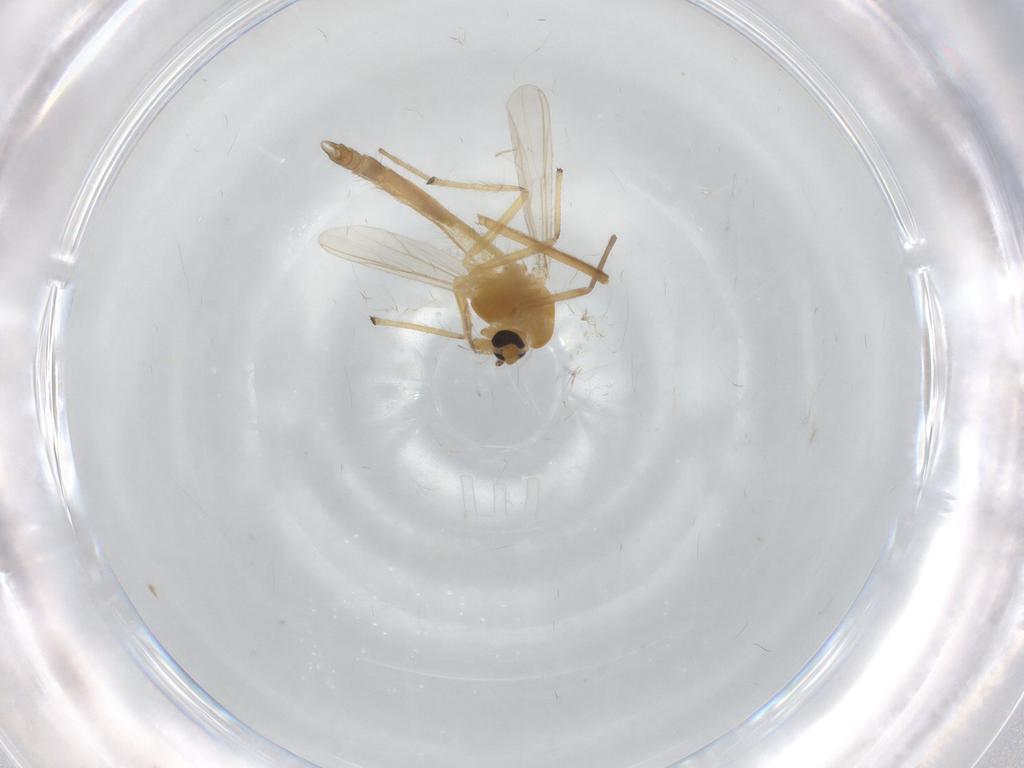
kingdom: Animalia
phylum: Arthropoda
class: Insecta
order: Diptera
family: Chironomidae
